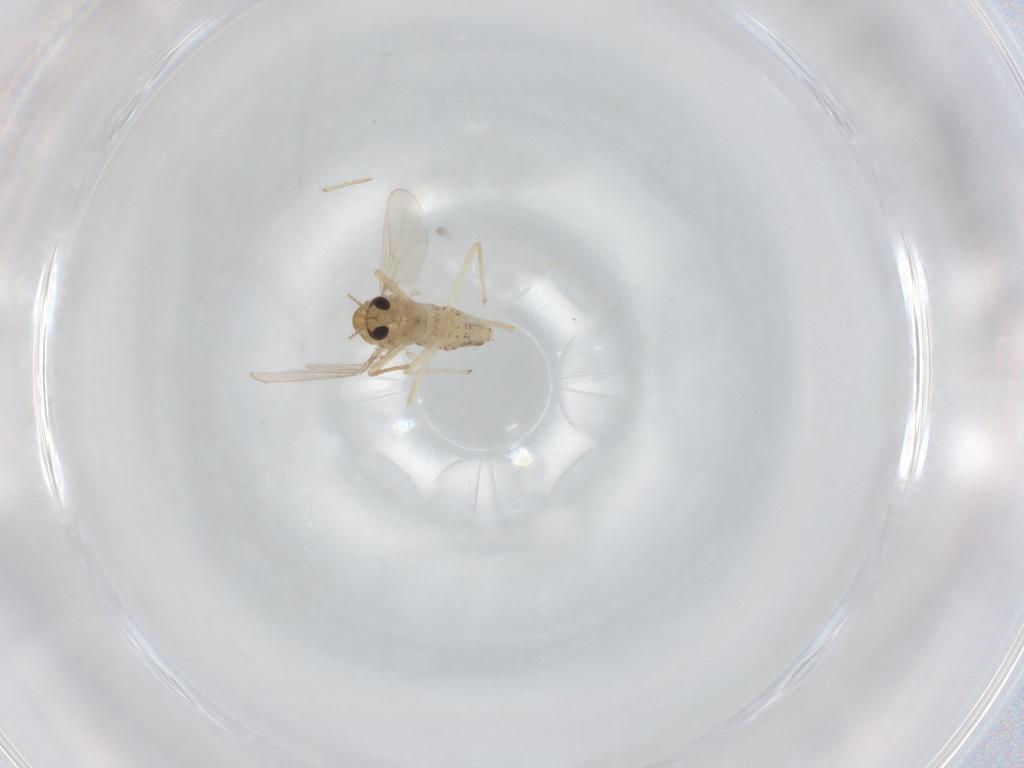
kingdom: Animalia
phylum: Arthropoda
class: Insecta
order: Diptera
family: Chironomidae
